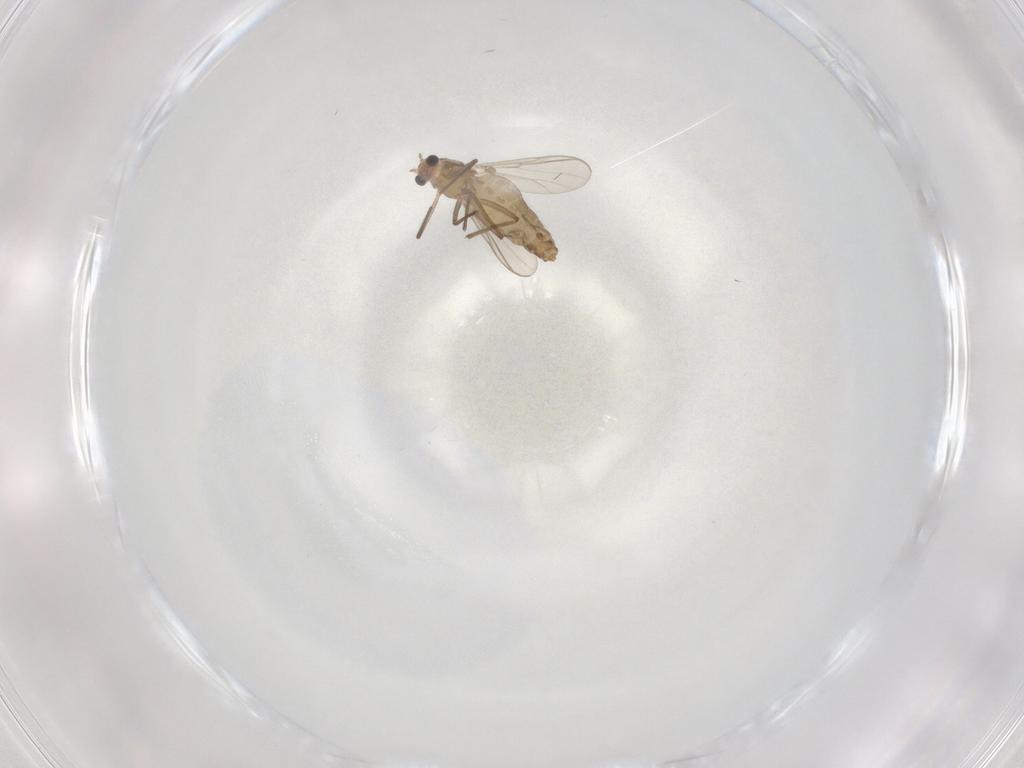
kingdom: Animalia
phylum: Arthropoda
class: Insecta
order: Diptera
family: Chironomidae
